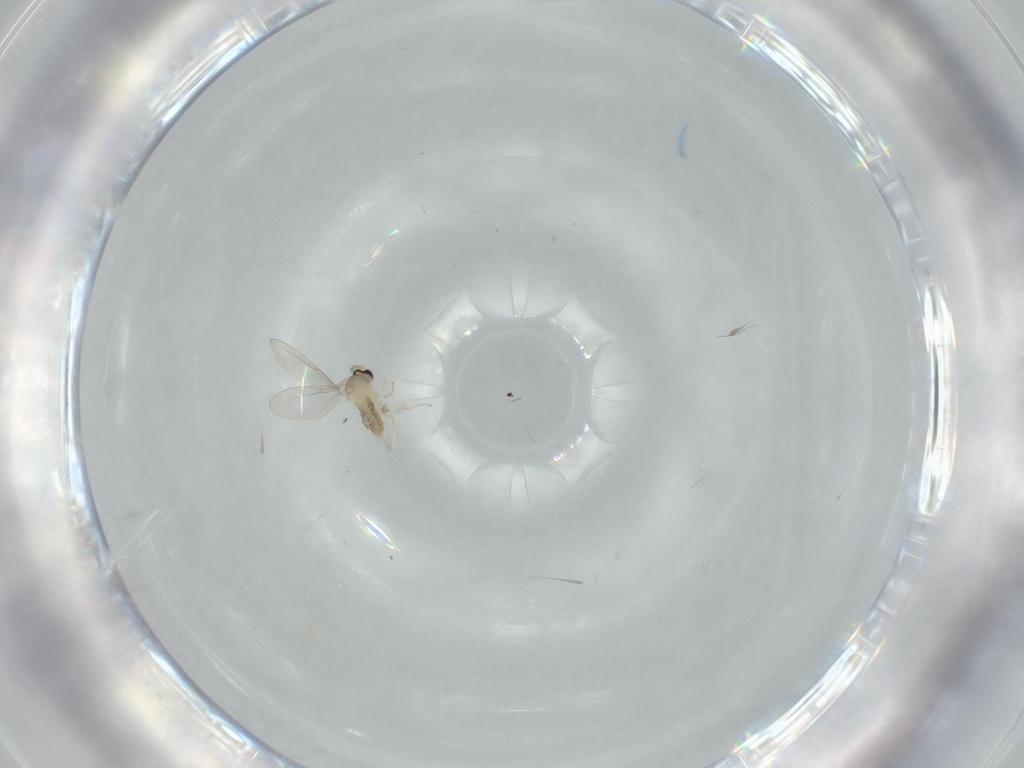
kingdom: Animalia
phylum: Arthropoda
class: Insecta
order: Diptera
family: Cecidomyiidae
